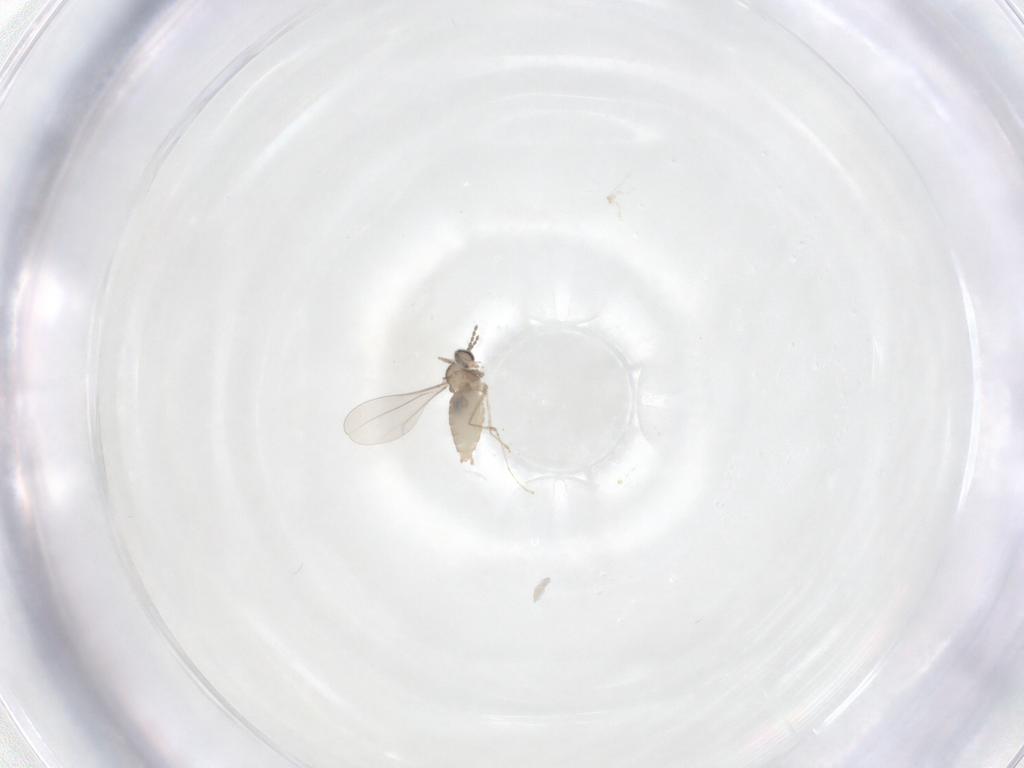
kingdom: Animalia
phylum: Arthropoda
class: Insecta
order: Diptera
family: Cecidomyiidae
